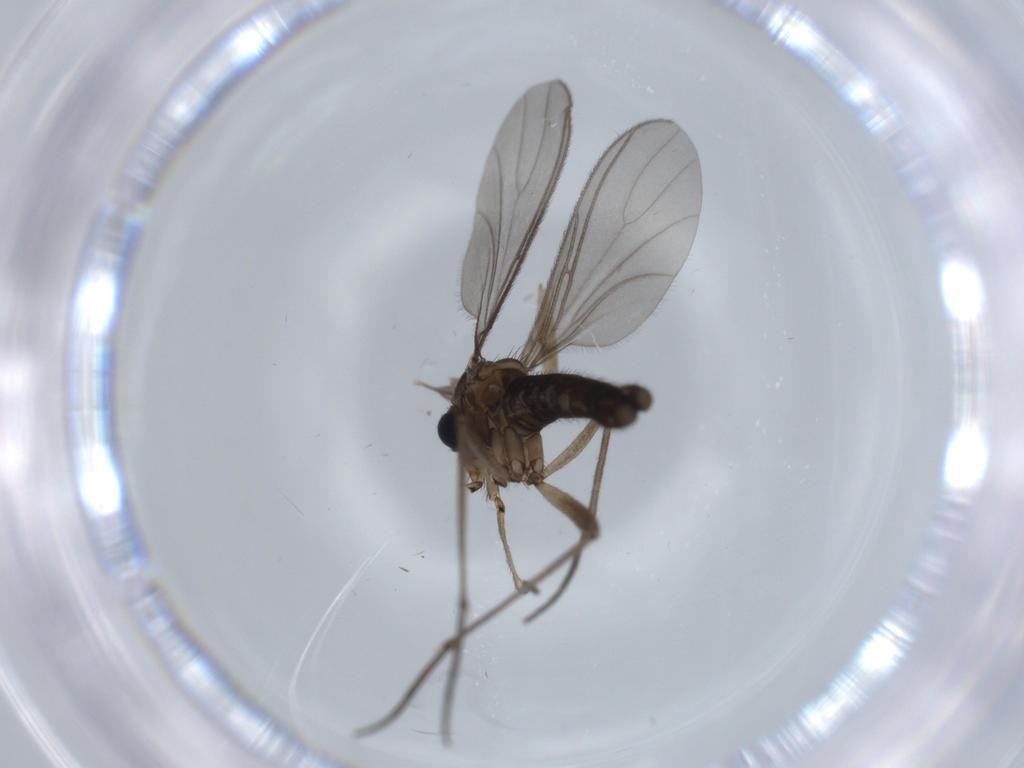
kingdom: Animalia
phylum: Arthropoda
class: Insecta
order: Diptera
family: Sciaridae
